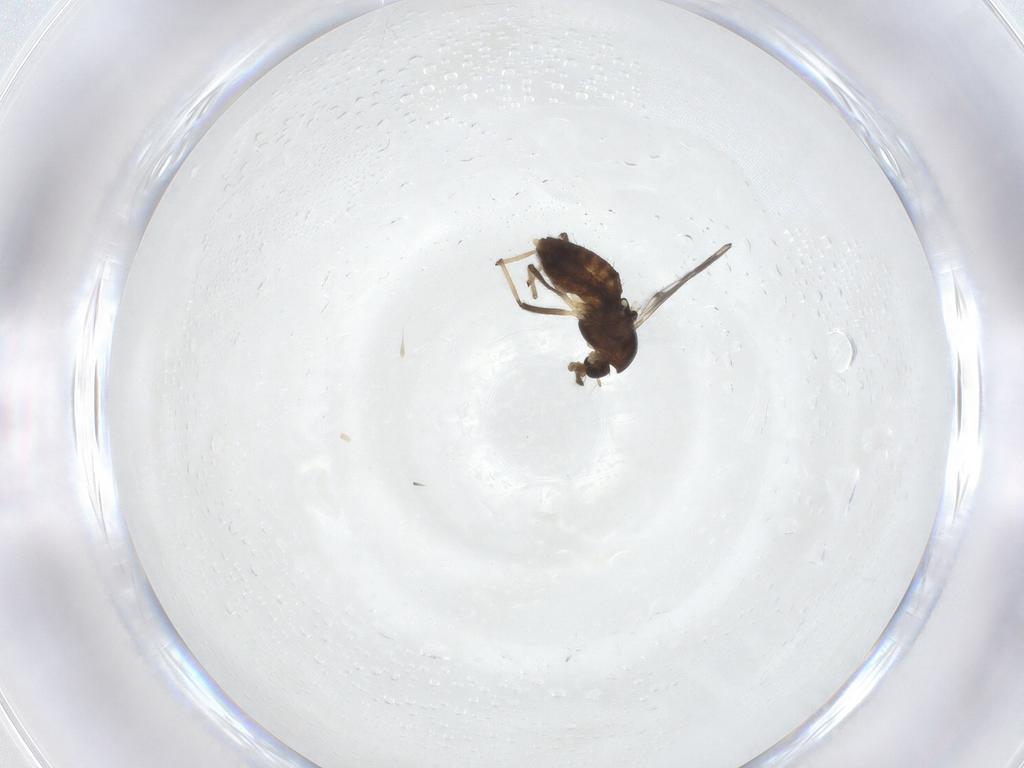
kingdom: Animalia
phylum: Arthropoda
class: Insecta
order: Diptera
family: Chironomidae
